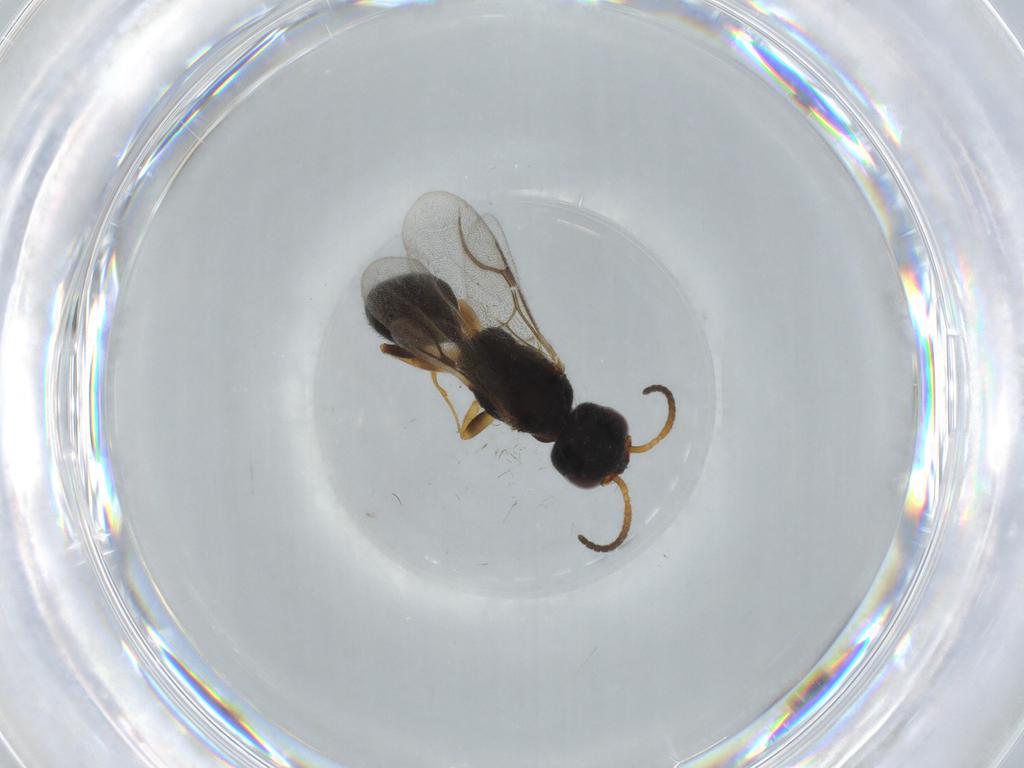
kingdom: Animalia
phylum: Arthropoda
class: Insecta
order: Hymenoptera
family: Bethylidae
